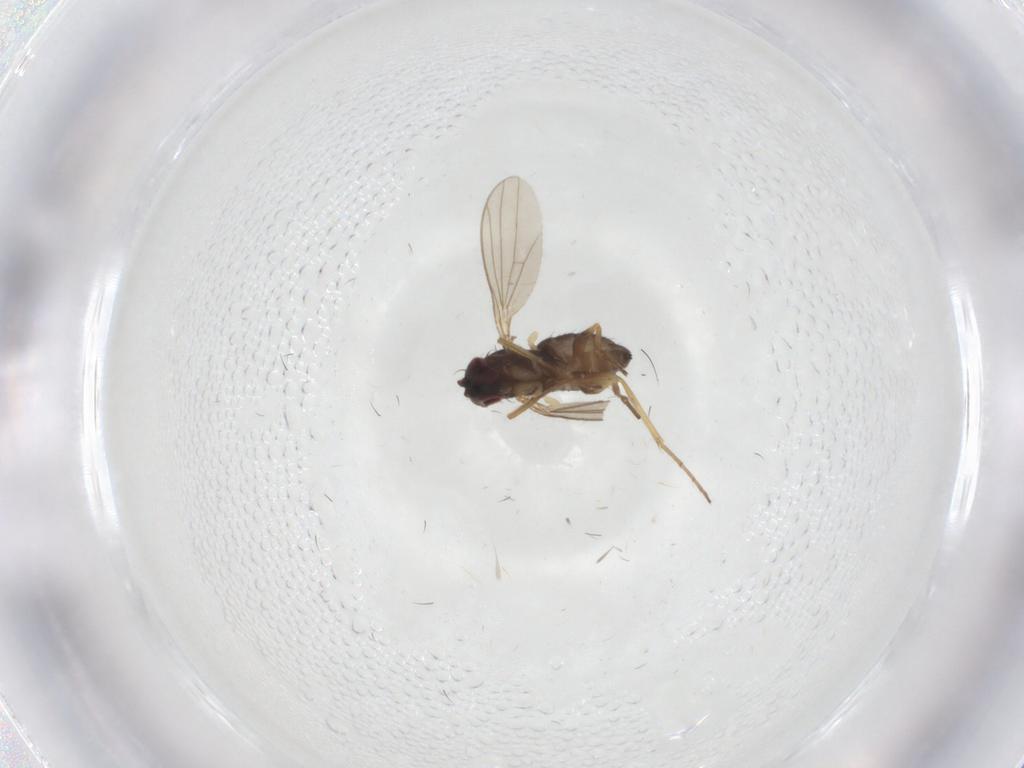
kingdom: Animalia
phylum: Arthropoda
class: Insecta
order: Diptera
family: Dolichopodidae
